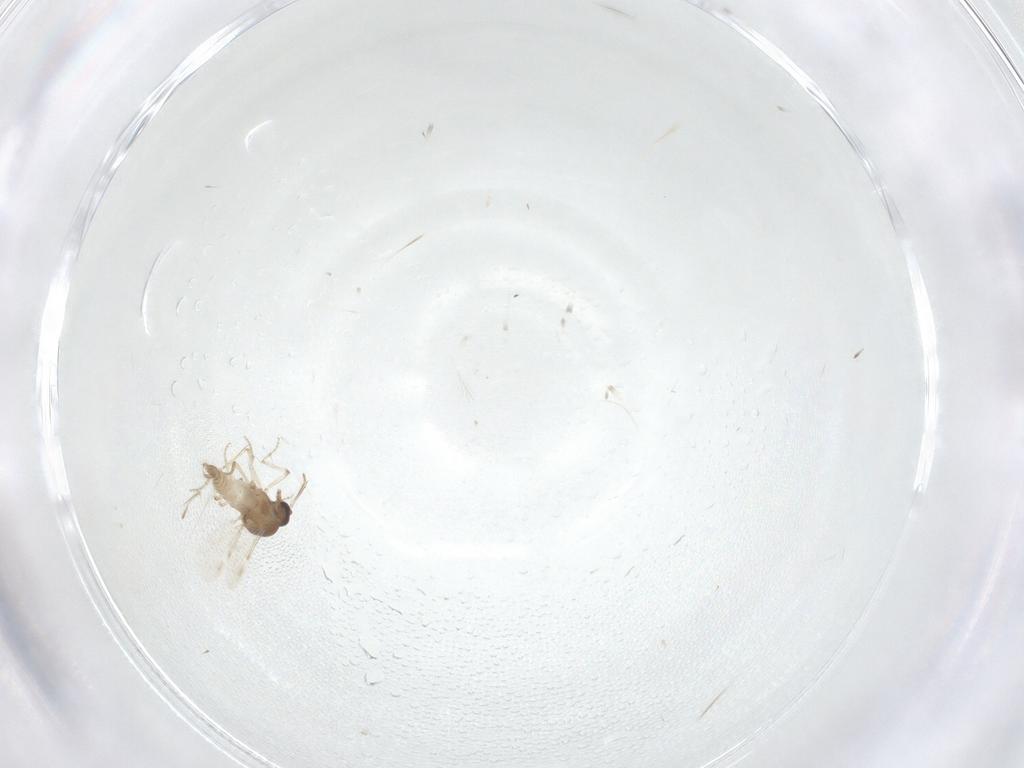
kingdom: Animalia
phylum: Arthropoda
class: Insecta
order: Diptera
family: Ceratopogonidae
